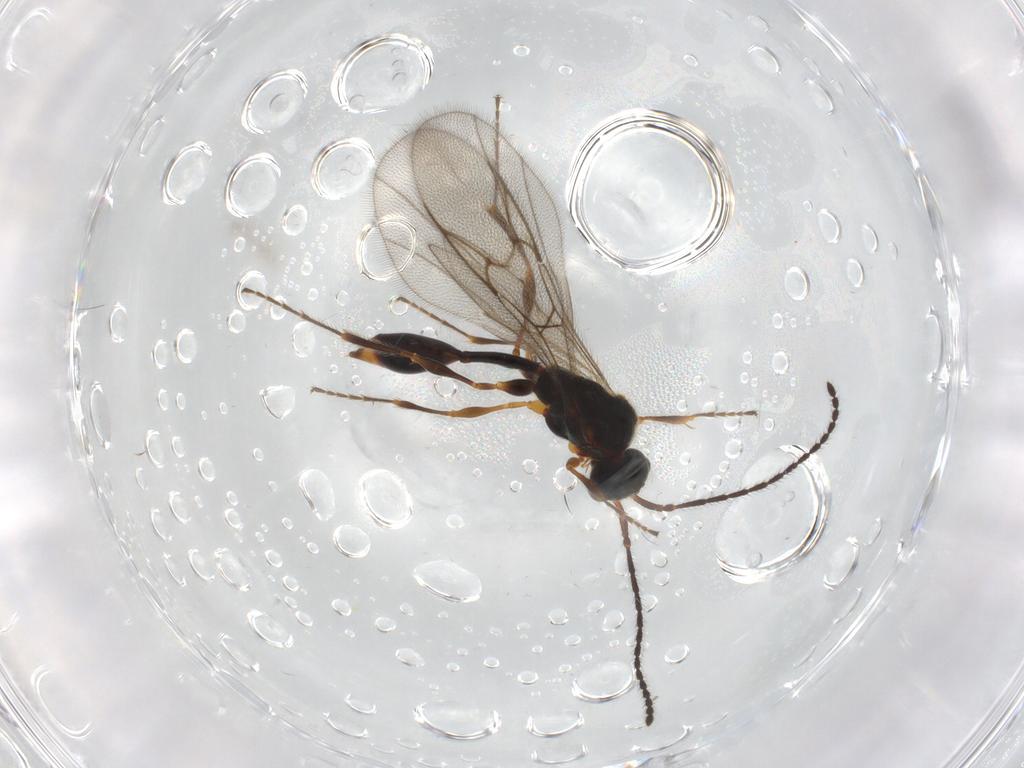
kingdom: Animalia
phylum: Arthropoda
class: Insecta
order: Hymenoptera
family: Diapriidae
